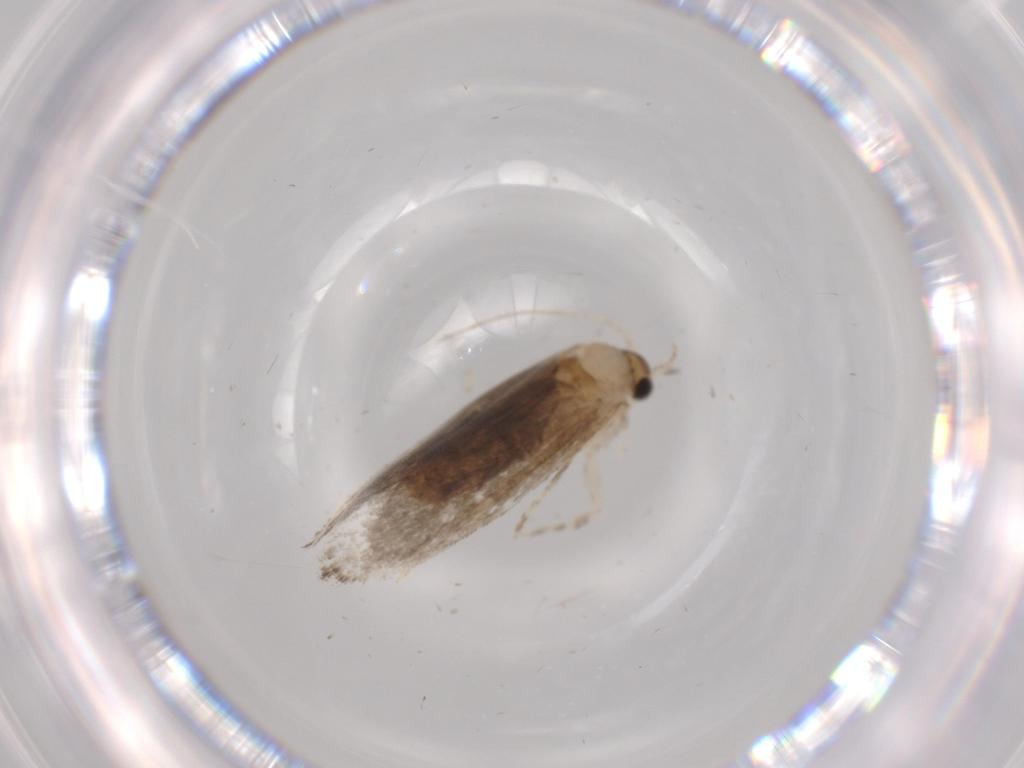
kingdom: Animalia
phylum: Arthropoda
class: Insecta
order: Lepidoptera
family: Tineidae
